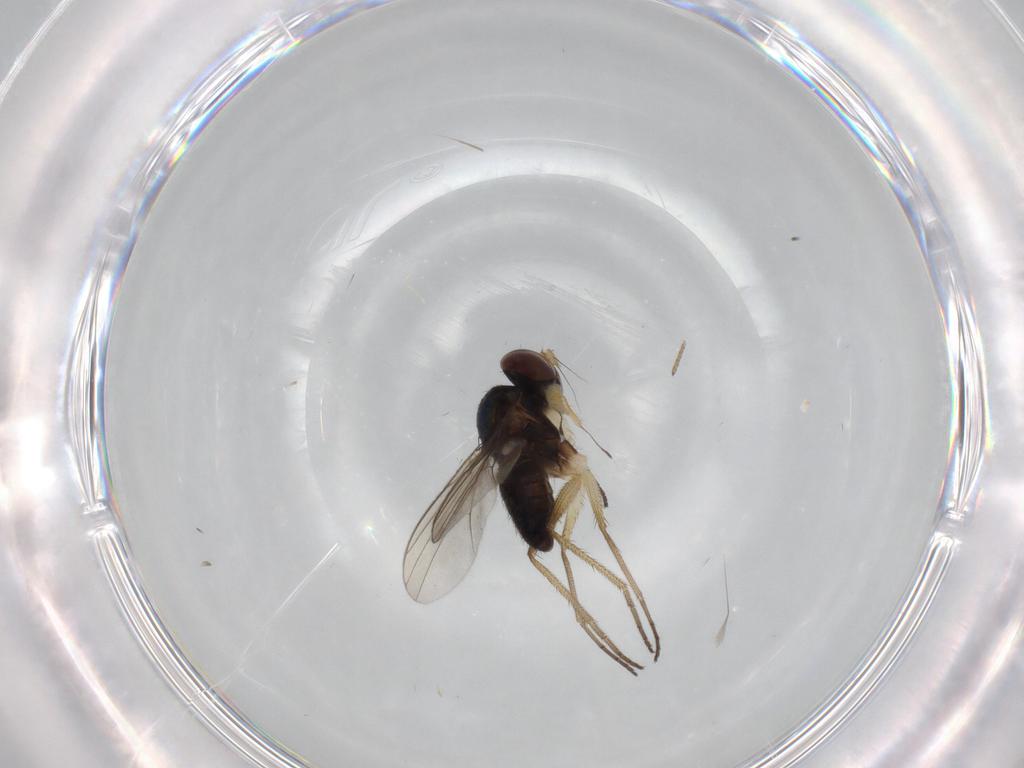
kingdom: Animalia
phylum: Arthropoda
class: Insecta
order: Diptera
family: Dolichopodidae
